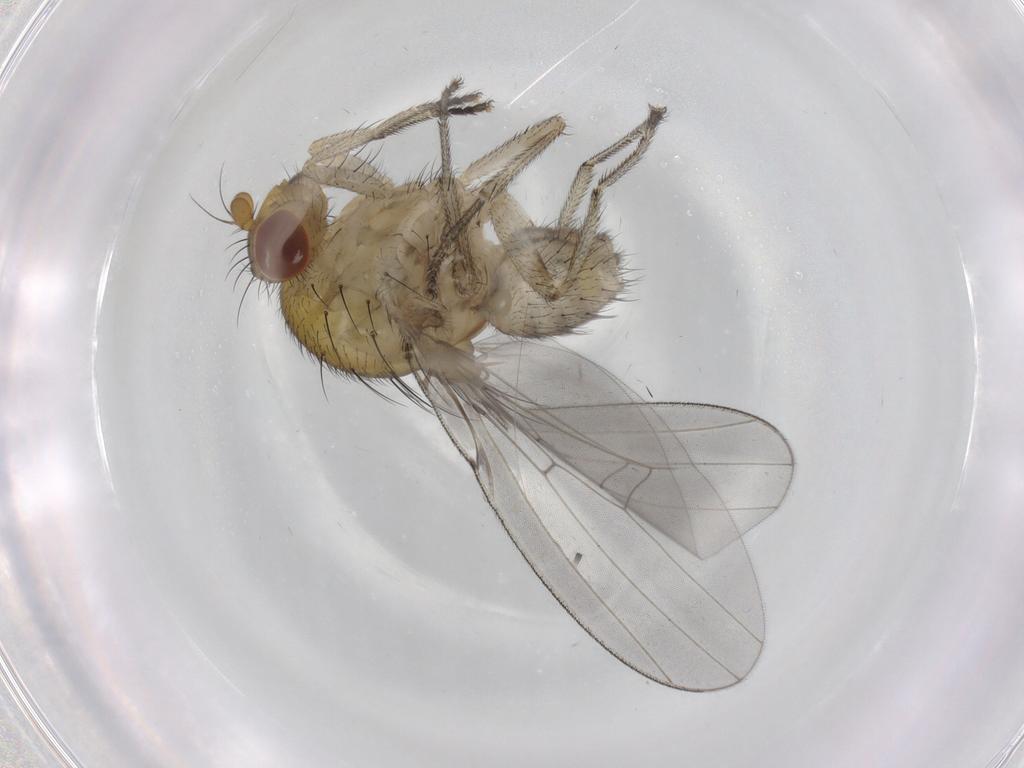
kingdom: Animalia
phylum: Arthropoda
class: Insecta
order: Diptera
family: Lauxaniidae
